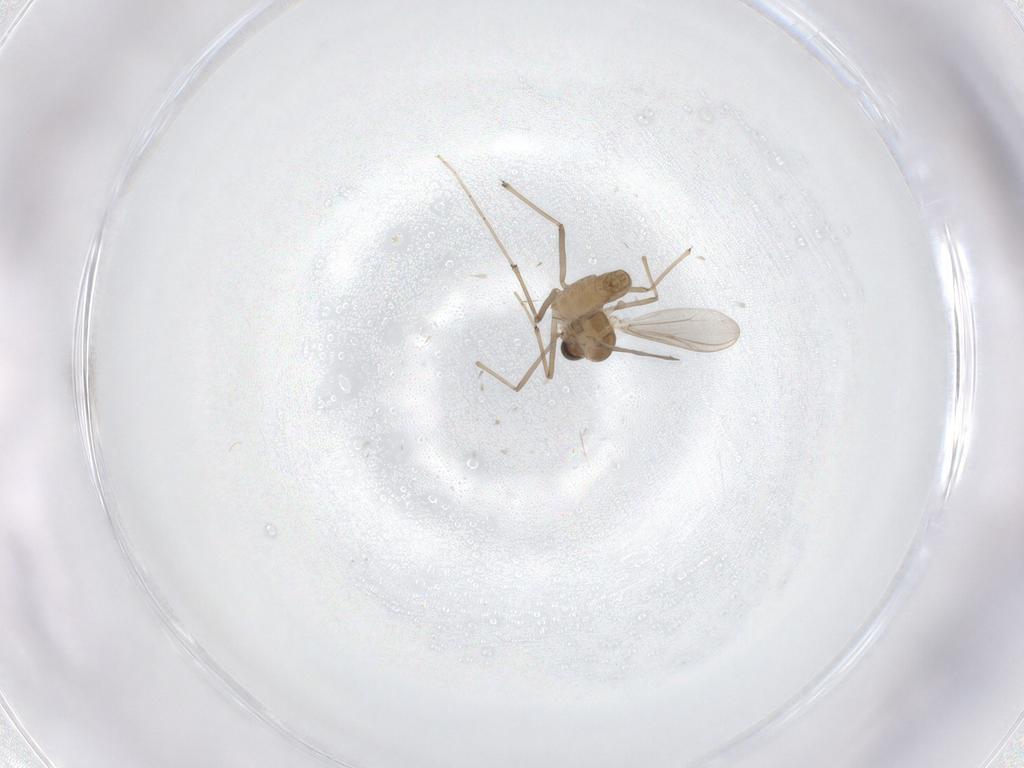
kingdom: Animalia
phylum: Arthropoda
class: Insecta
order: Diptera
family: Chironomidae
